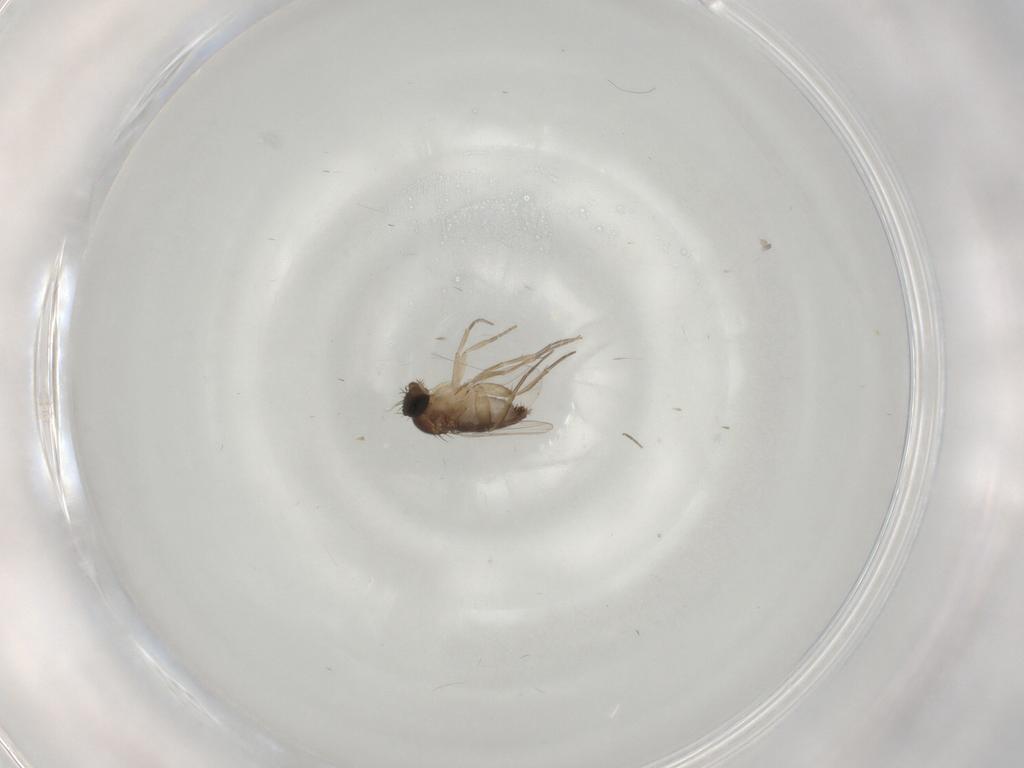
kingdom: Animalia
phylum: Arthropoda
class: Insecta
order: Diptera
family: Phoridae
